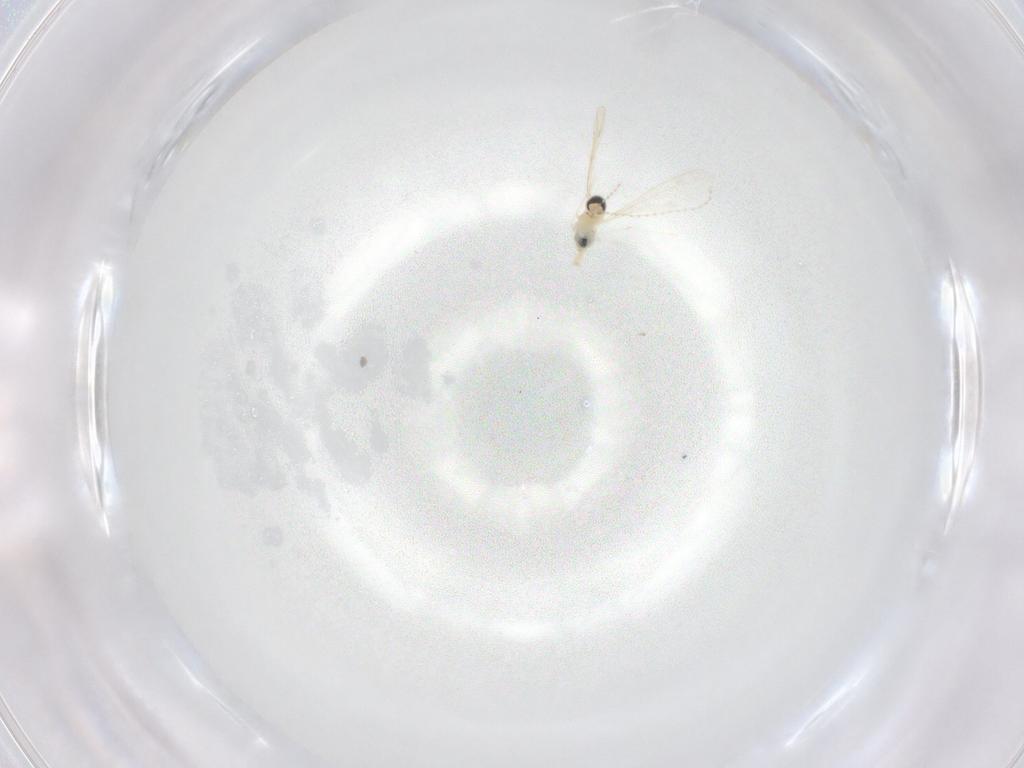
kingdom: Animalia
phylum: Arthropoda
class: Insecta
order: Diptera
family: Cecidomyiidae
